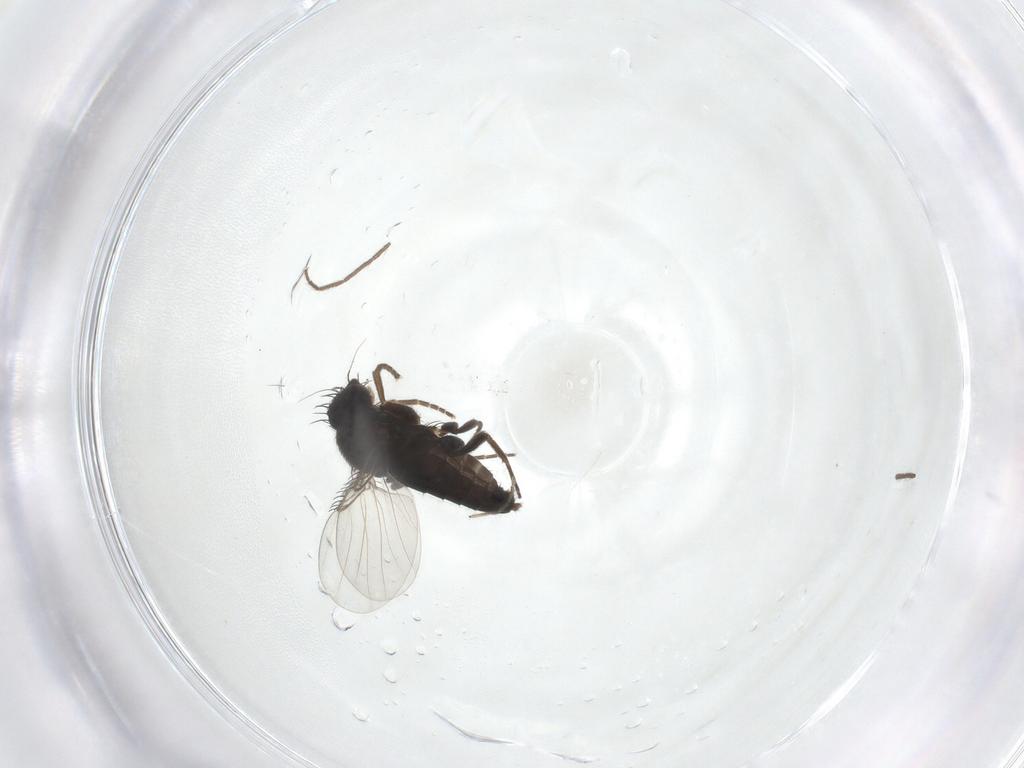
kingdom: Animalia
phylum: Arthropoda
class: Insecta
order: Diptera
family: Phoridae
